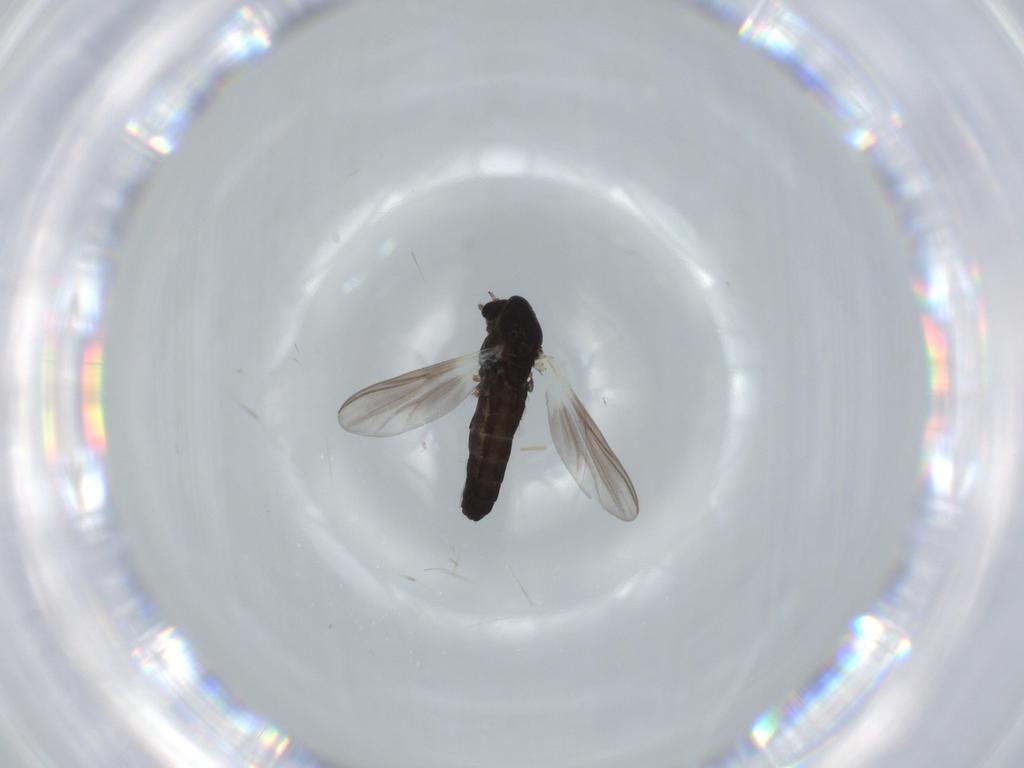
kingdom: Animalia
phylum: Arthropoda
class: Insecta
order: Diptera
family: Chironomidae
